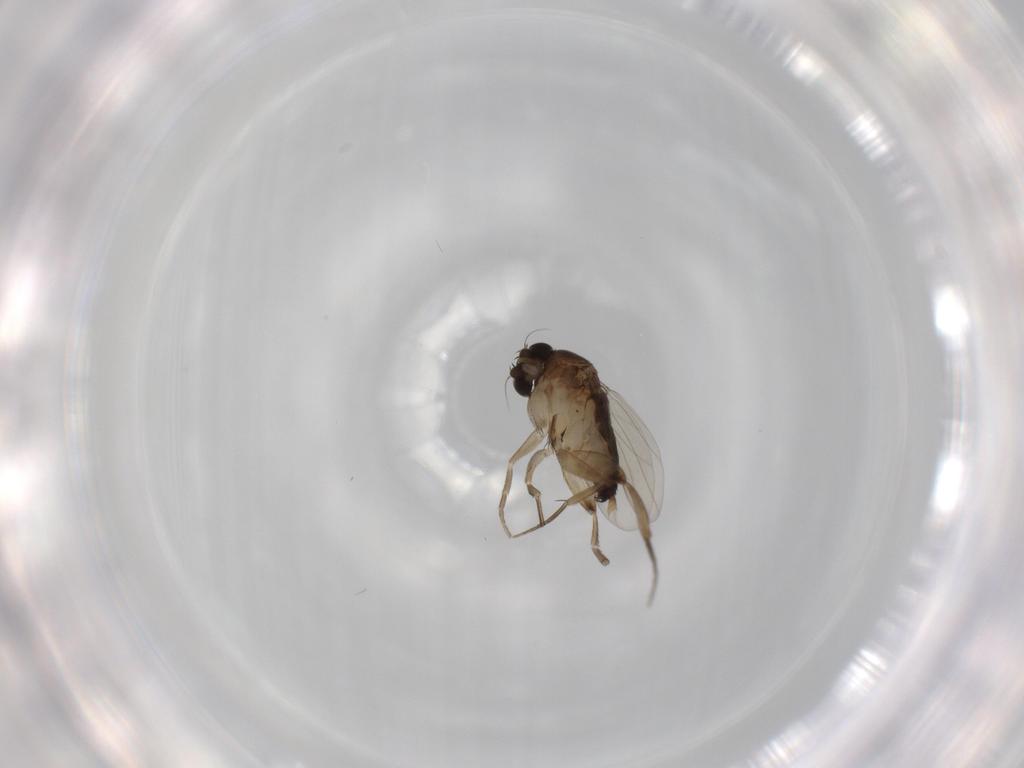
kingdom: Animalia
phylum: Arthropoda
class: Insecta
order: Diptera
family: Phoridae
